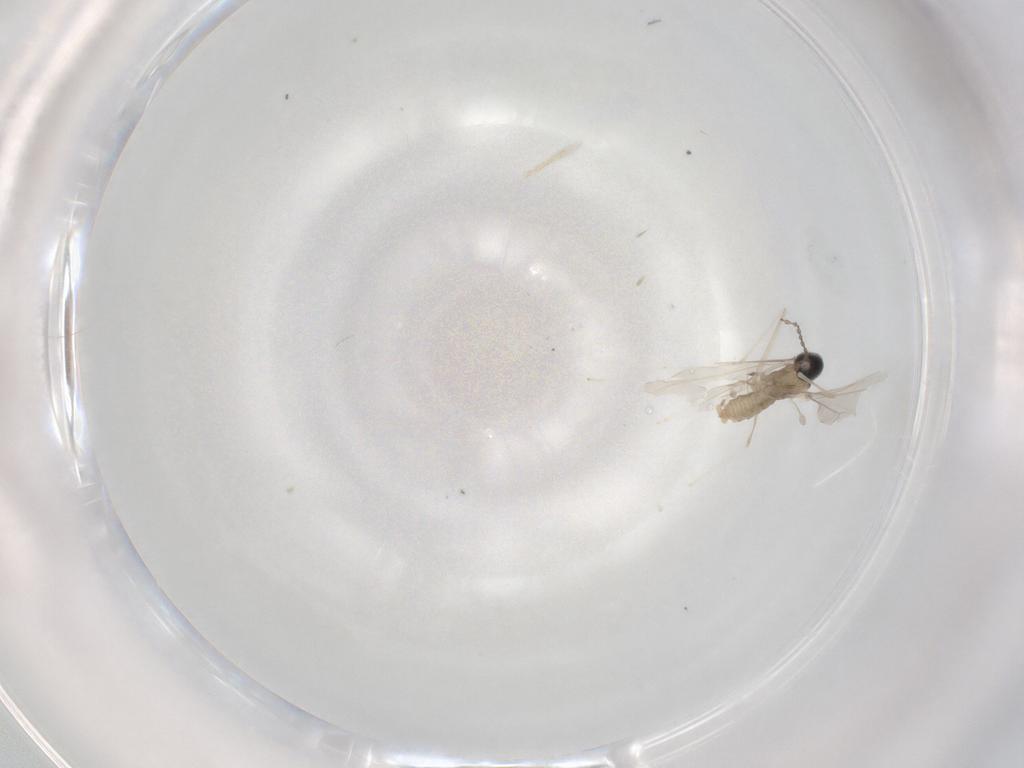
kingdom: Animalia
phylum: Arthropoda
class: Insecta
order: Diptera
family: Cecidomyiidae
